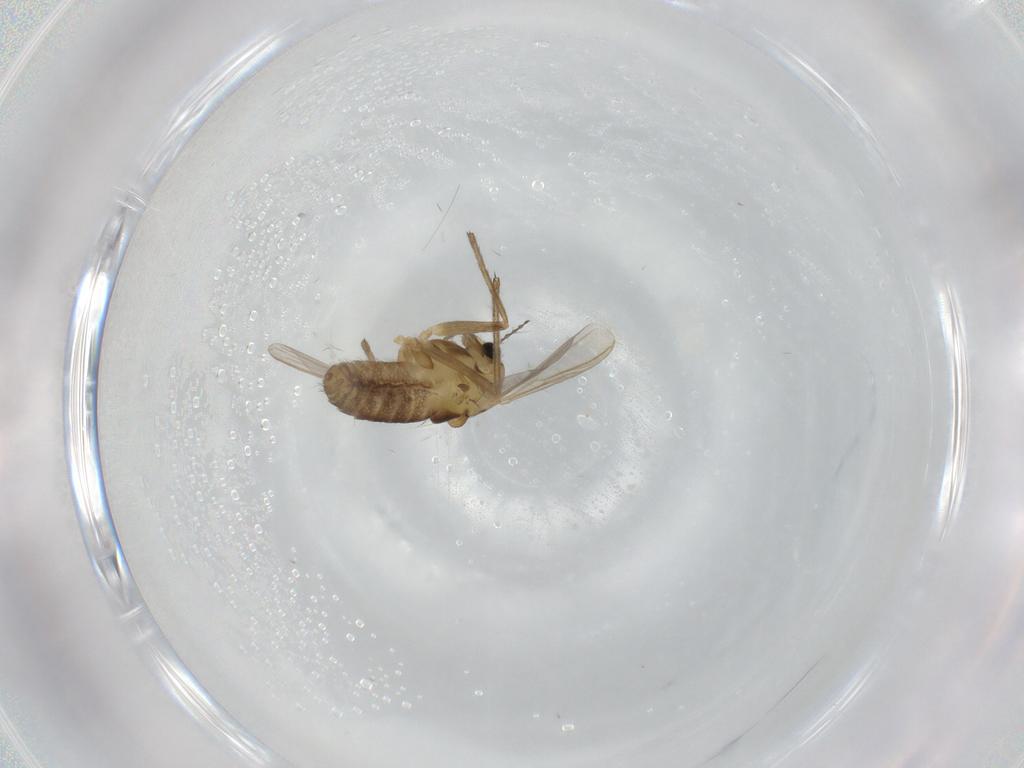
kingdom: Animalia
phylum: Arthropoda
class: Insecta
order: Diptera
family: Chironomidae
